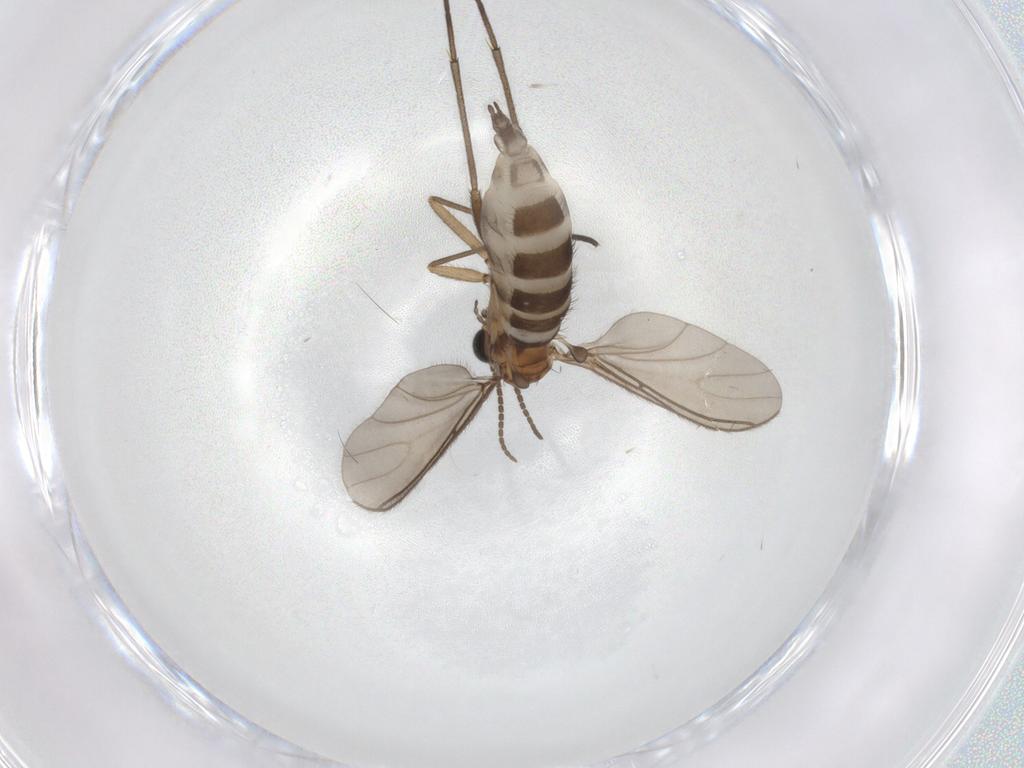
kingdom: Animalia
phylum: Arthropoda
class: Insecta
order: Diptera
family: Sciaridae
